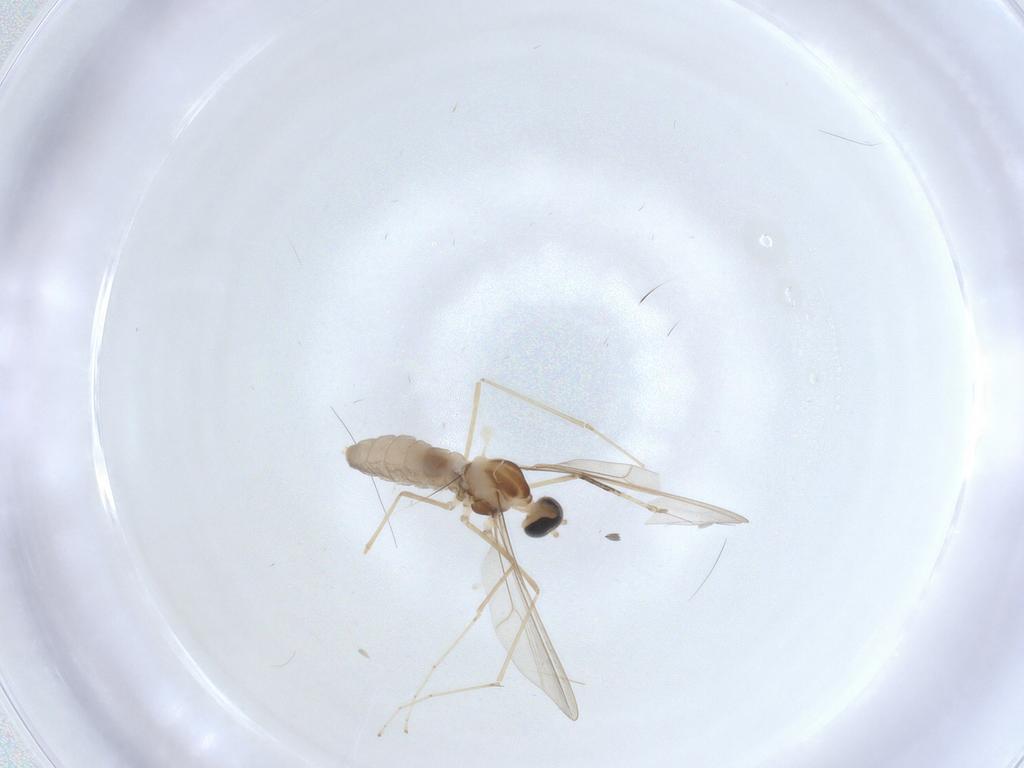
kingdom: Animalia
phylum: Arthropoda
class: Insecta
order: Diptera
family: Cecidomyiidae
